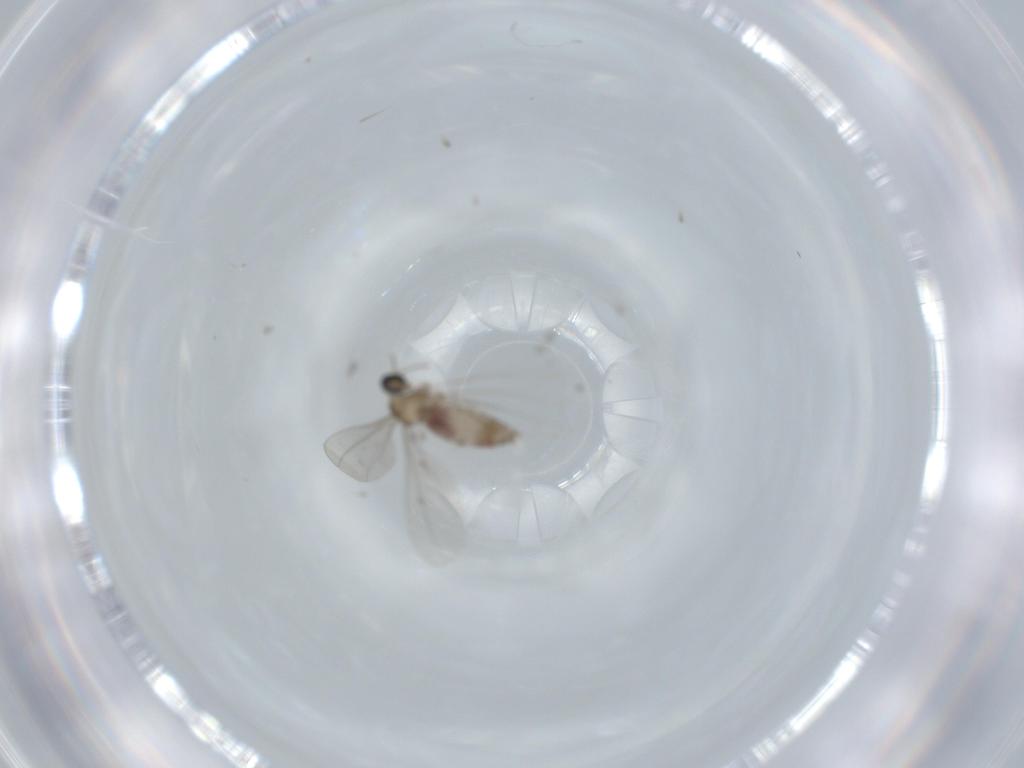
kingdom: Animalia
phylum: Arthropoda
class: Insecta
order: Diptera
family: Cecidomyiidae
